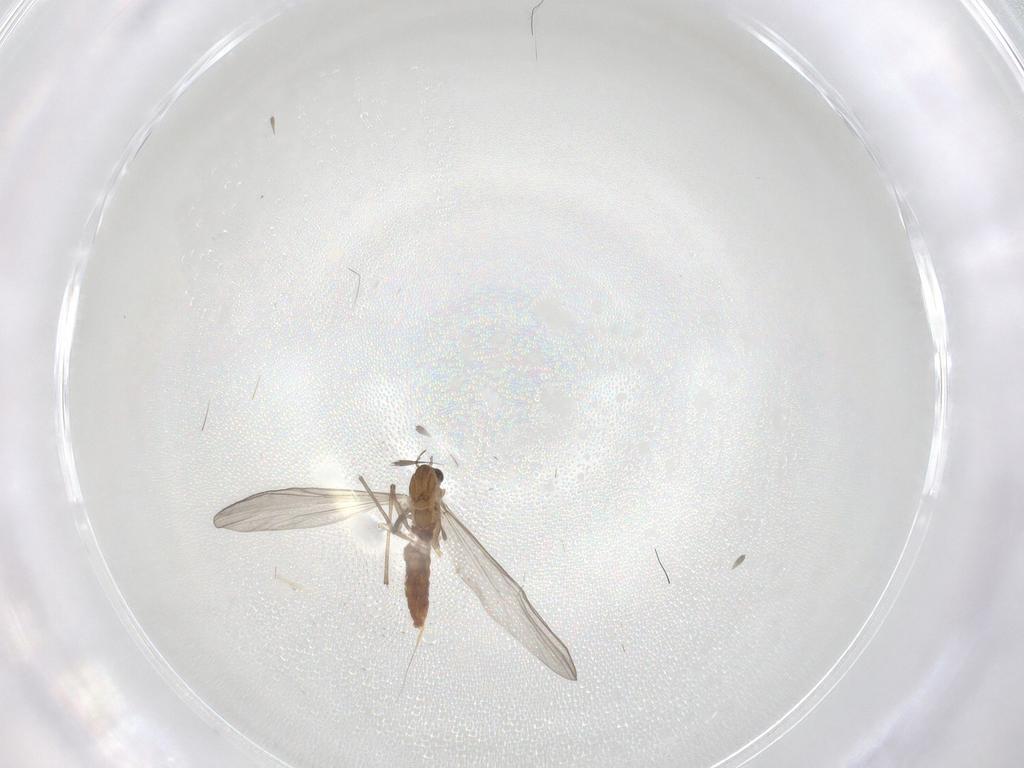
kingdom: Animalia
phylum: Arthropoda
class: Insecta
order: Diptera
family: Chironomidae
